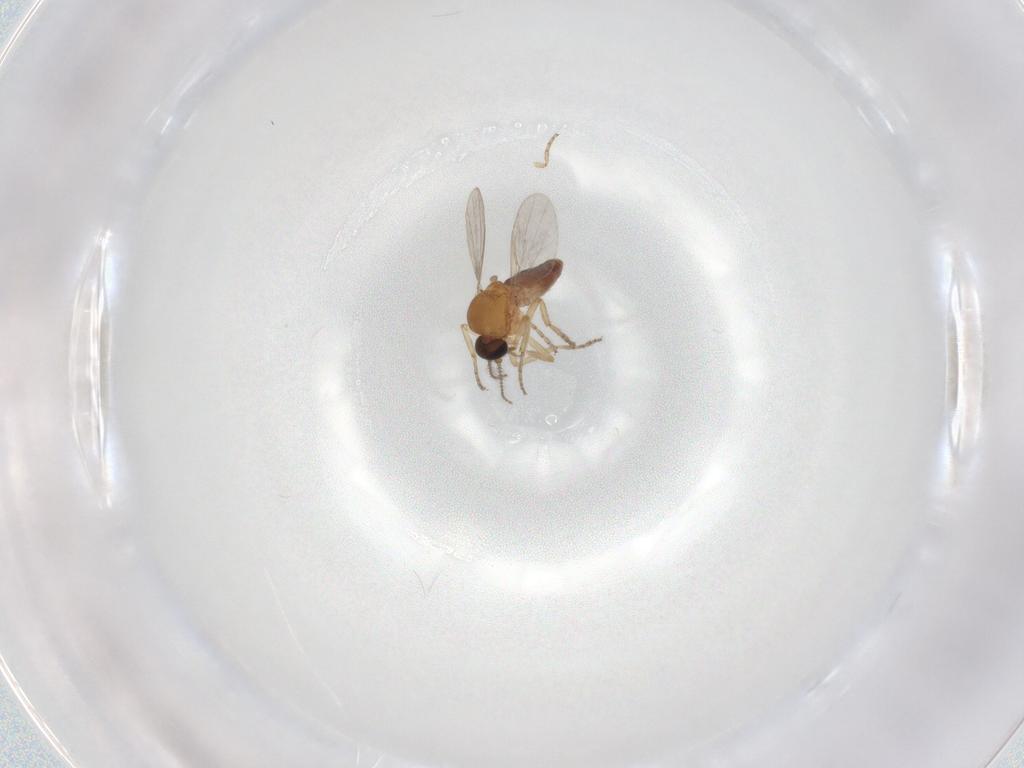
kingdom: Animalia
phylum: Arthropoda
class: Insecta
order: Diptera
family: Ceratopogonidae
